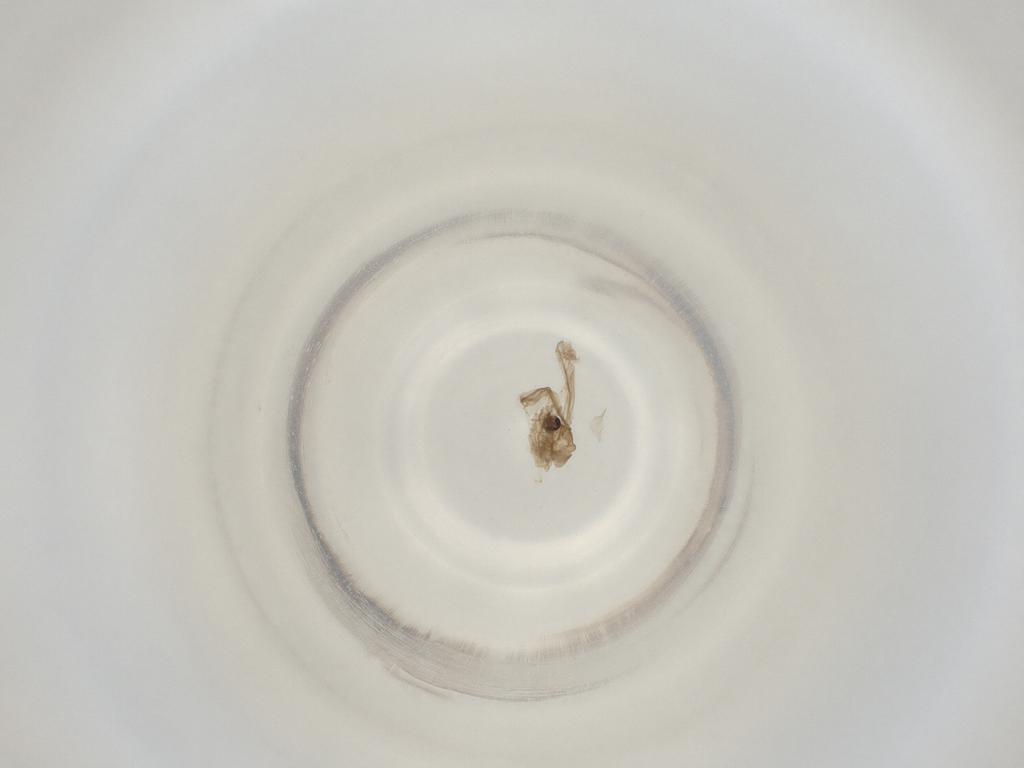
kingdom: Animalia
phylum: Arthropoda
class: Insecta
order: Diptera
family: Cecidomyiidae
